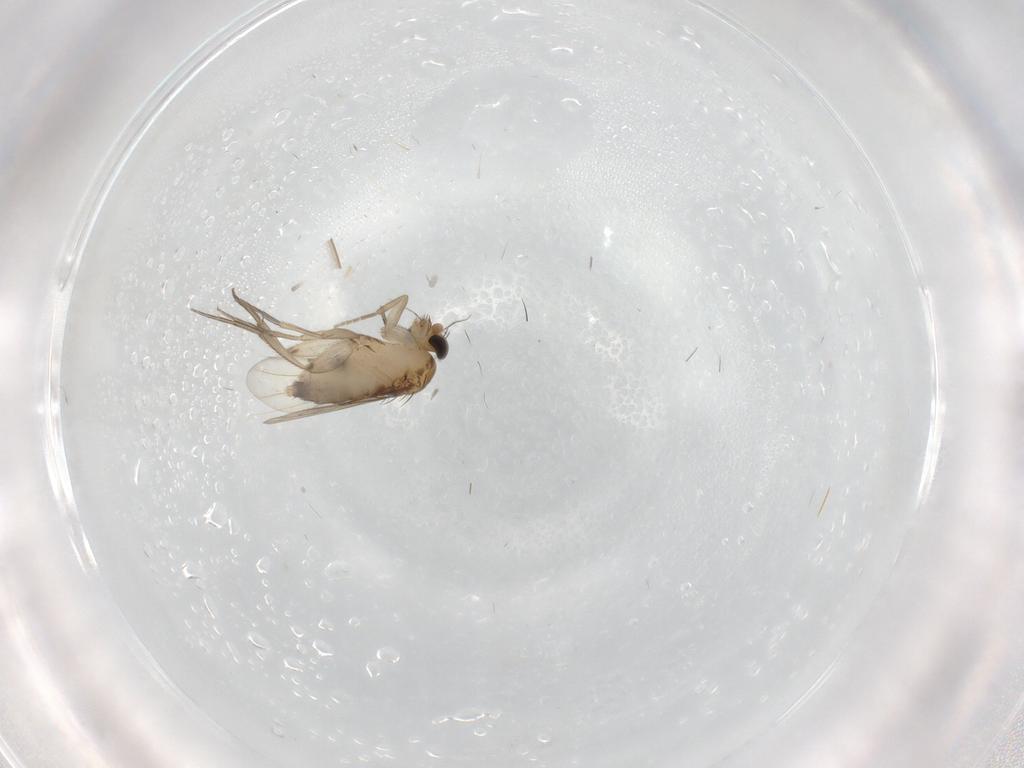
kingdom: Animalia
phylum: Arthropoda
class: Insecta
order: Diptera
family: Phoridae
